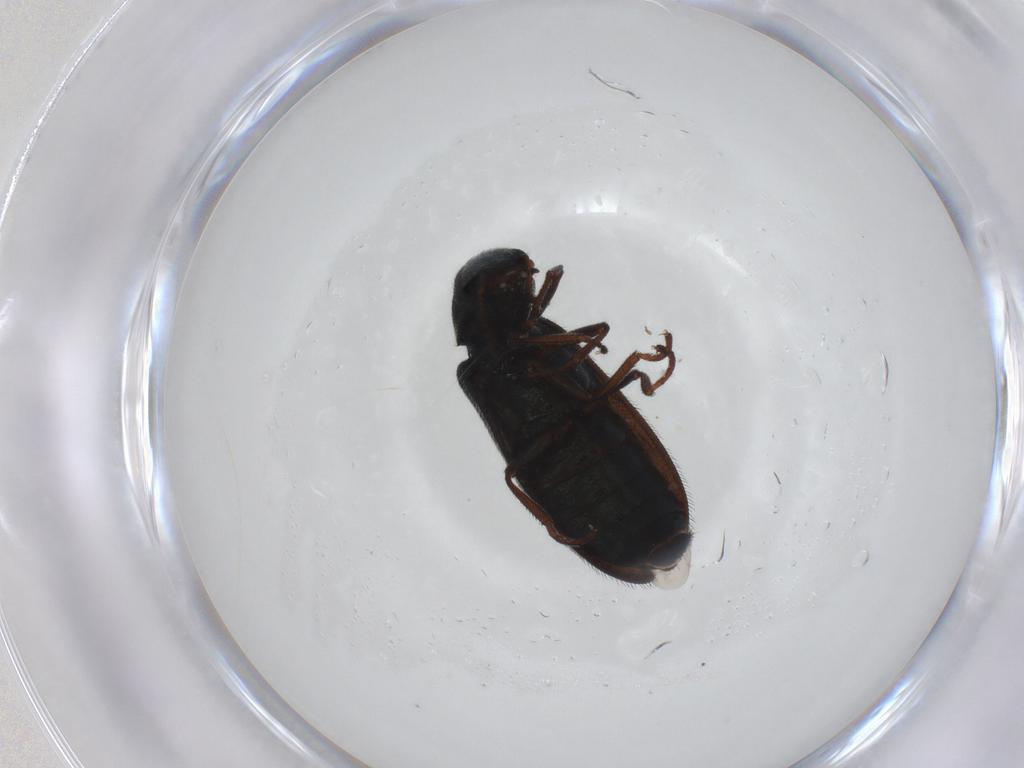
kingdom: Animalia
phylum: Arthropoda
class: Insecta
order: Coleoptera
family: Melyridae
